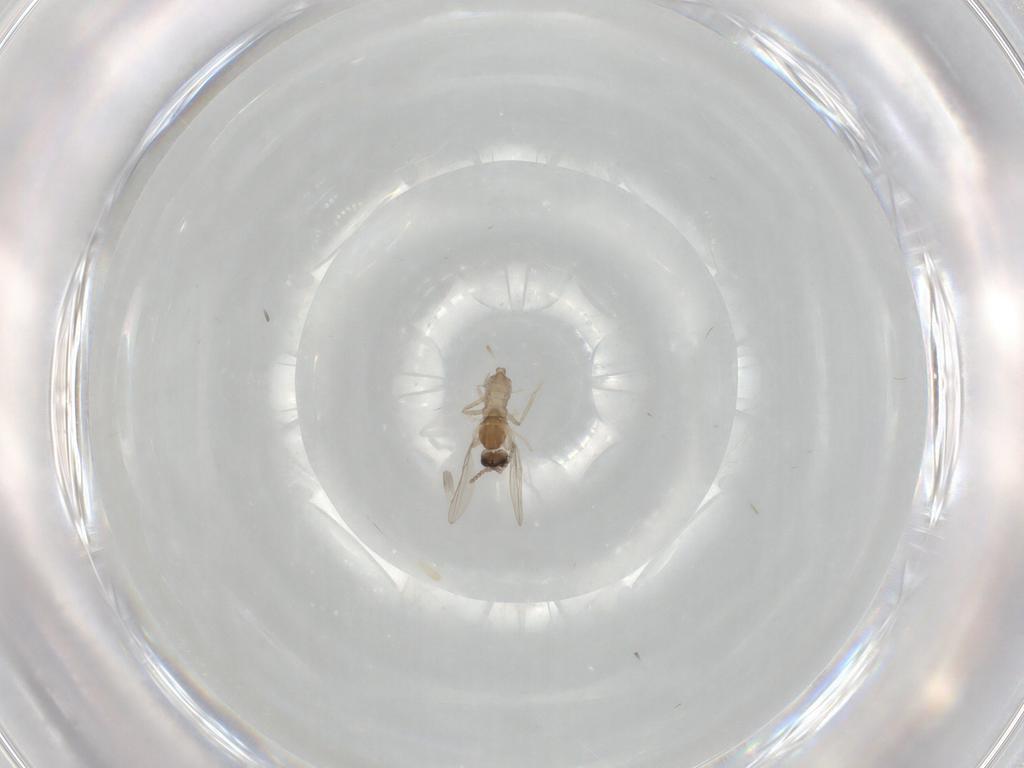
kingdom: Animalia
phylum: Arthropoda
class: Insecta
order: Diptera
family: Cecidomyiidae
